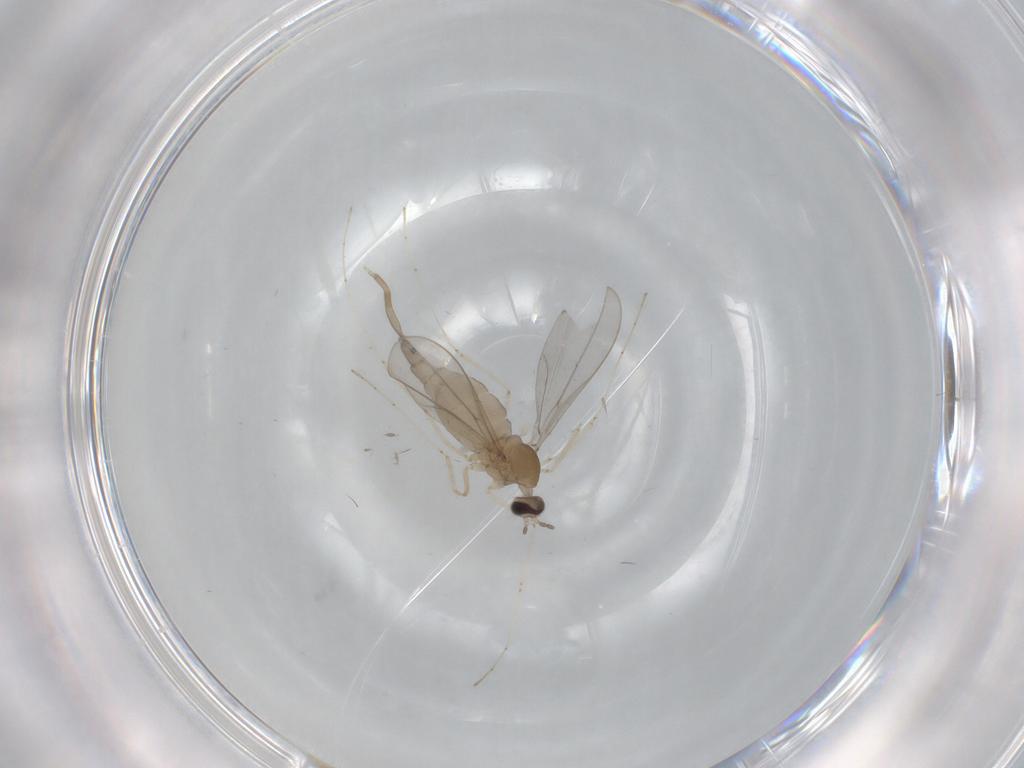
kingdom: Animalia
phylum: Arthropoda
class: Insecta
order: Diptera
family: Cecidomyiidae
